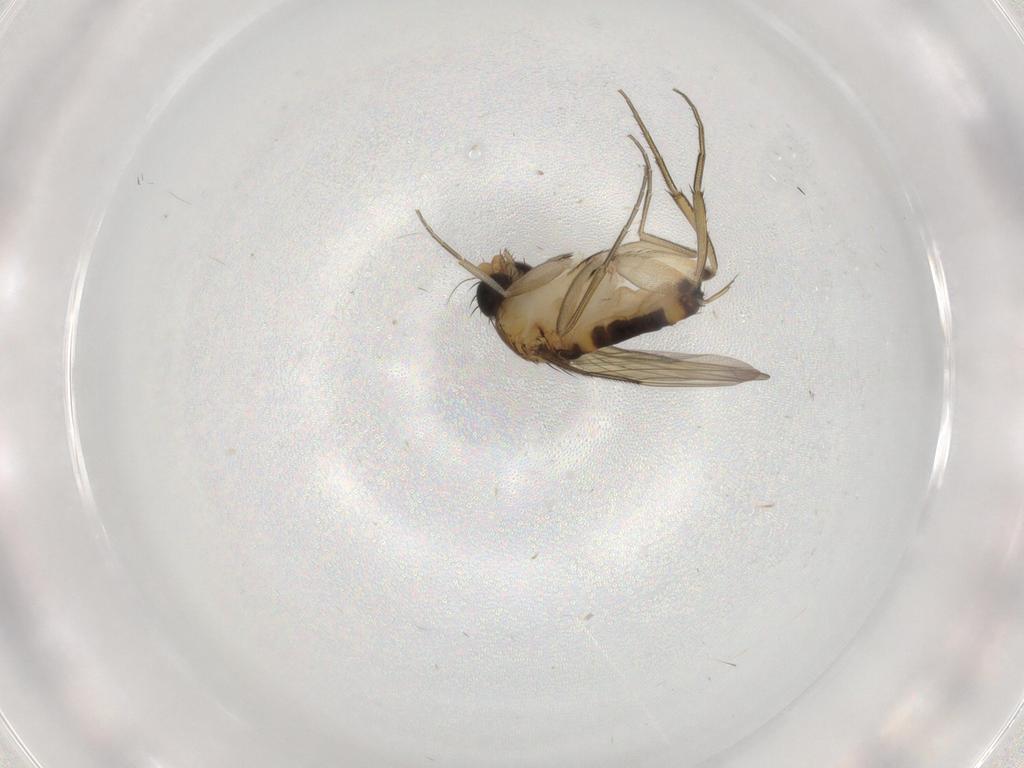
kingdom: Animalia
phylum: Arthropoda
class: Insecta
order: Diptera
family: Phoridae
